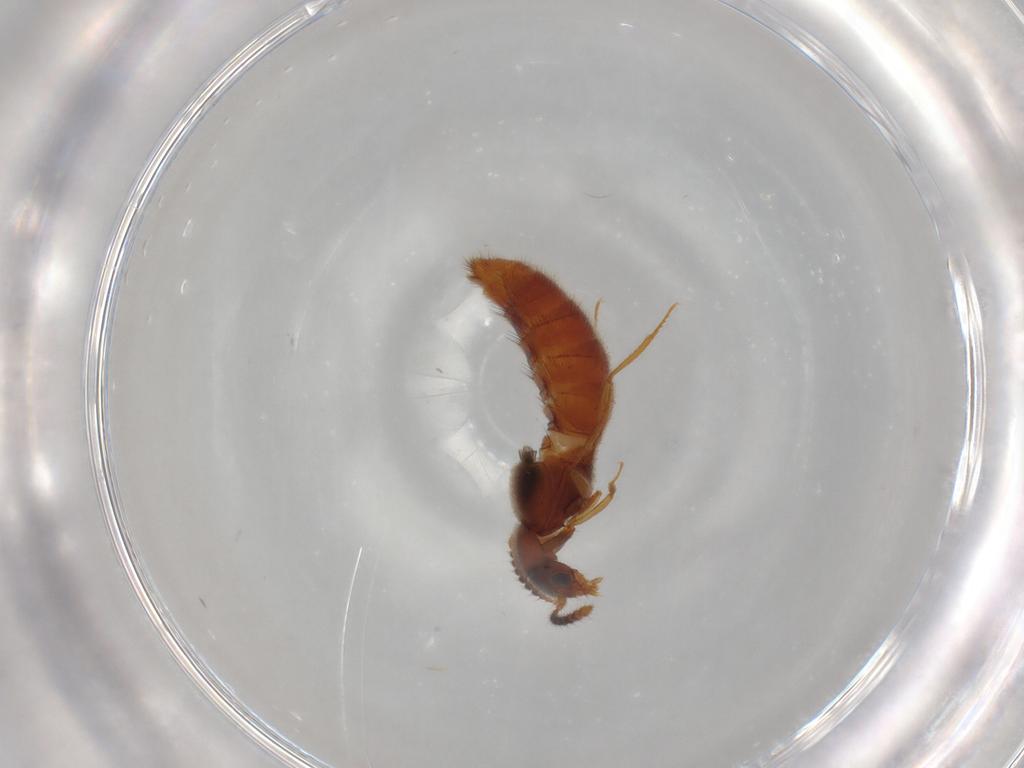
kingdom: Animalia
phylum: Arthropoda
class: Insecta
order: Coleoptera
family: Staphylinidae
